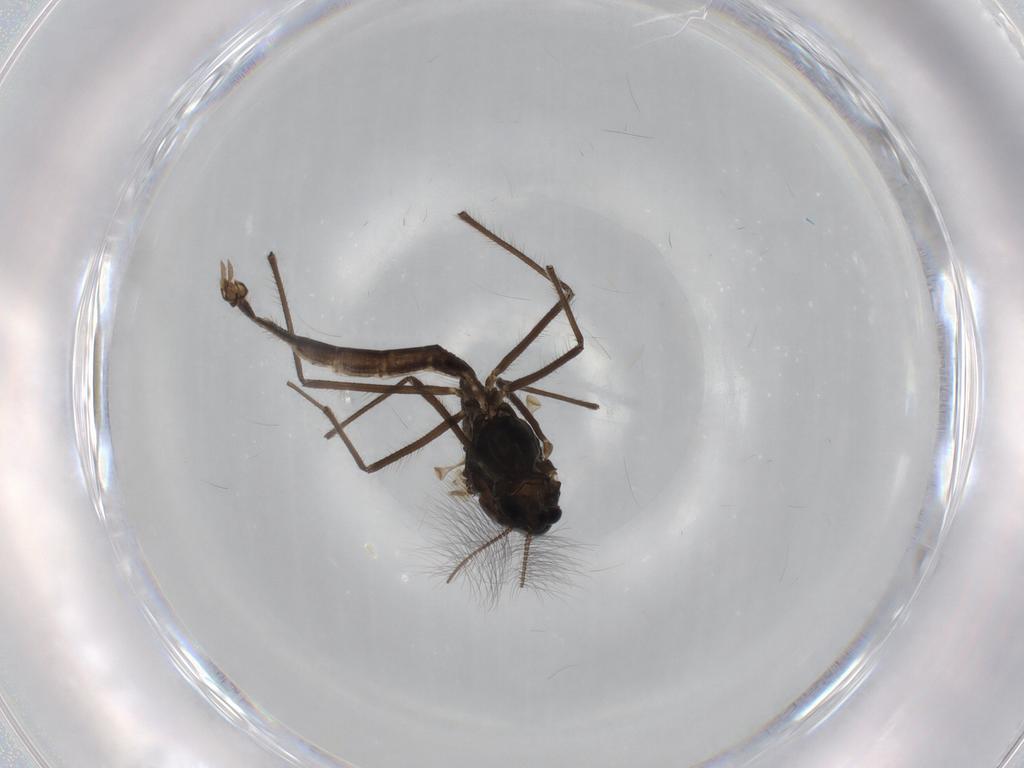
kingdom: Animalia
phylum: Arthropoda
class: Insecta
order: Diptera
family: Chironomidae
